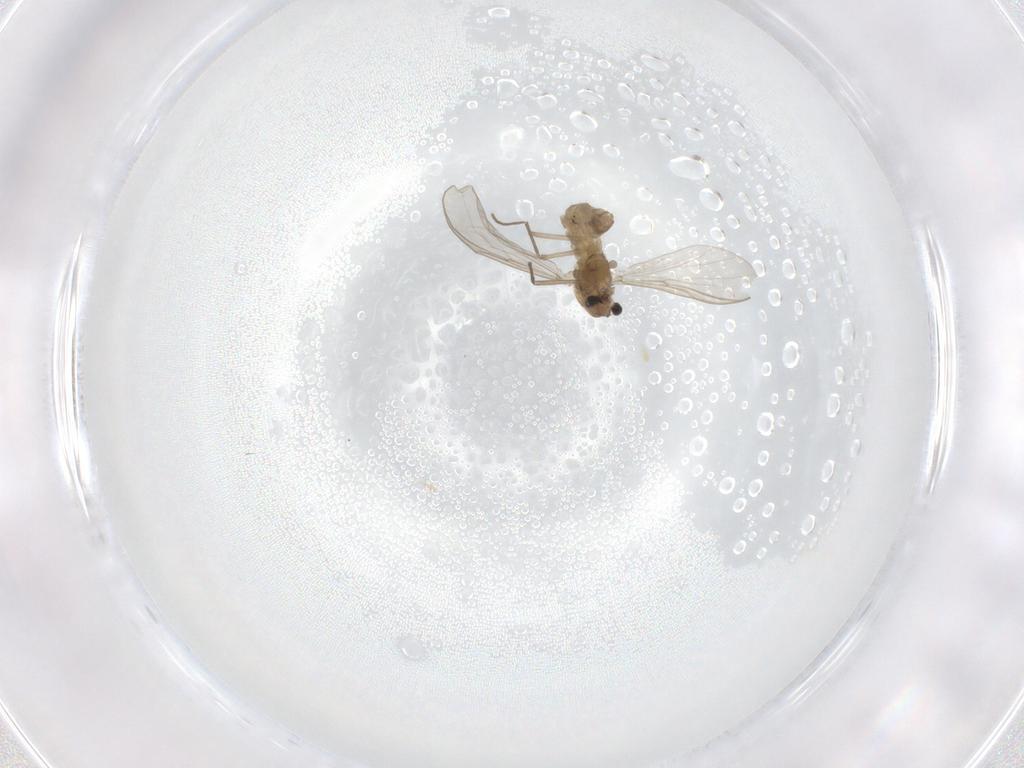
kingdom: Animalia
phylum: Arthropoda
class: Insecta
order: Diptera
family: Chironomidae
